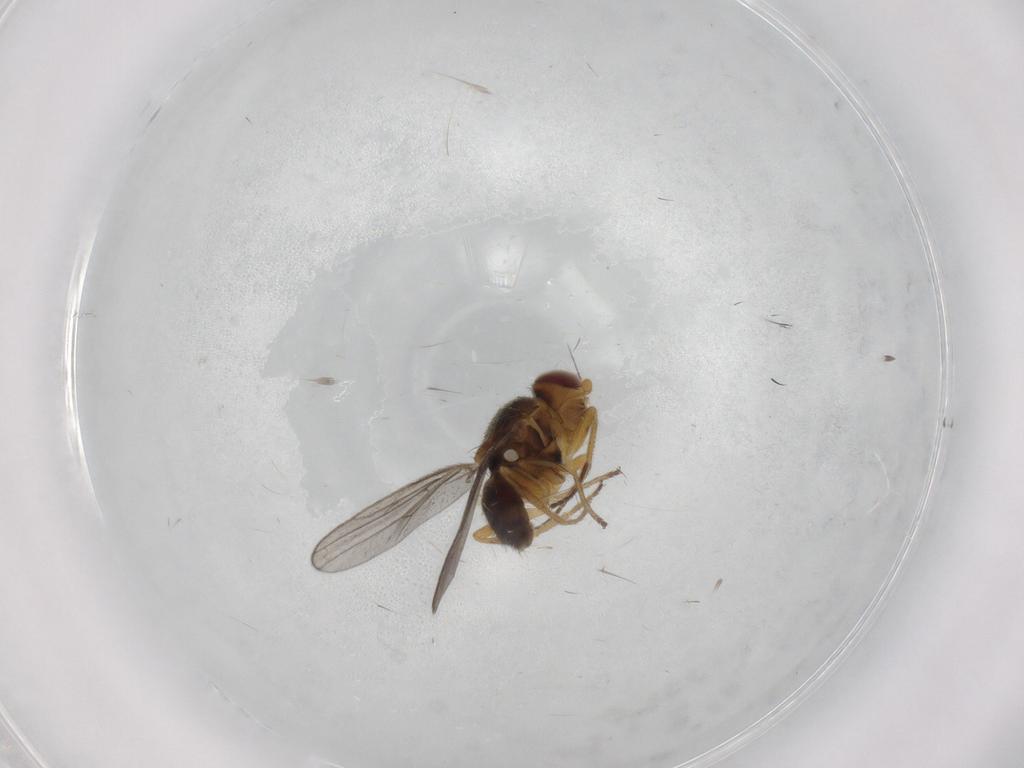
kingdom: Animalia
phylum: Arthropoda
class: Insecta
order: Diptera
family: Chloropidae
